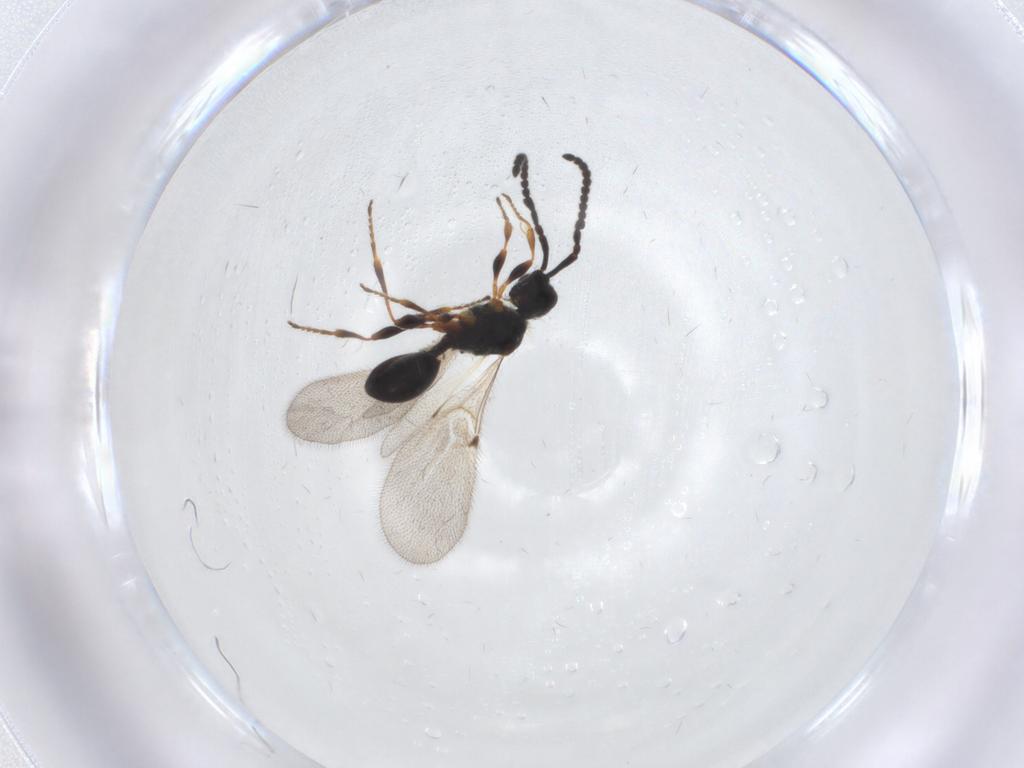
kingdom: Animalia
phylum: Arthropoda
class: Insecta
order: Hymenoptera
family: Diapriidae
